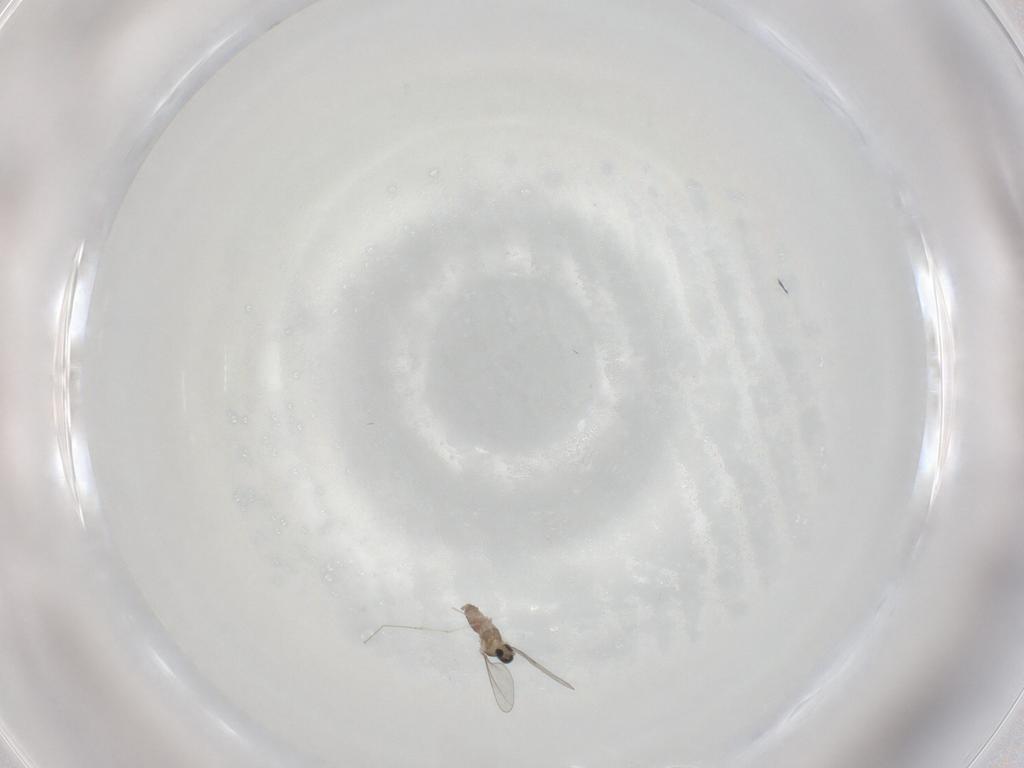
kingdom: Animalia
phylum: Arthropoda
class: Insecta
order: Diptera
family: Cecidomyiidae
